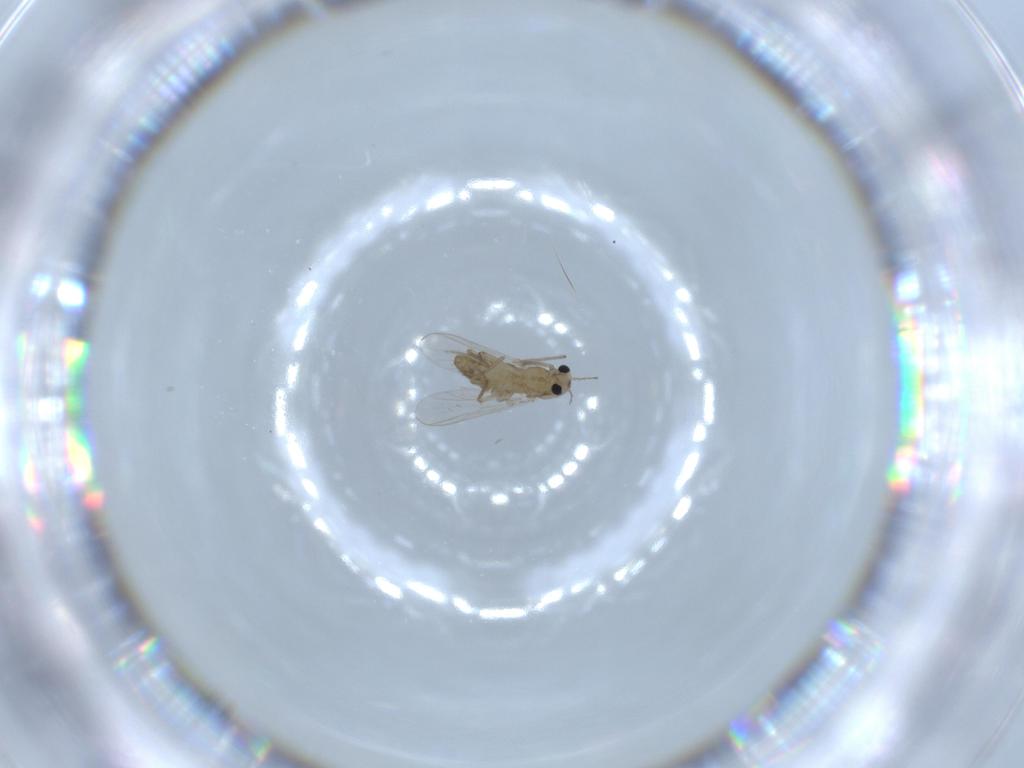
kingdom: Animalia
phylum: Arthropoda
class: Insecta
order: Diptera
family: Chironomidae
